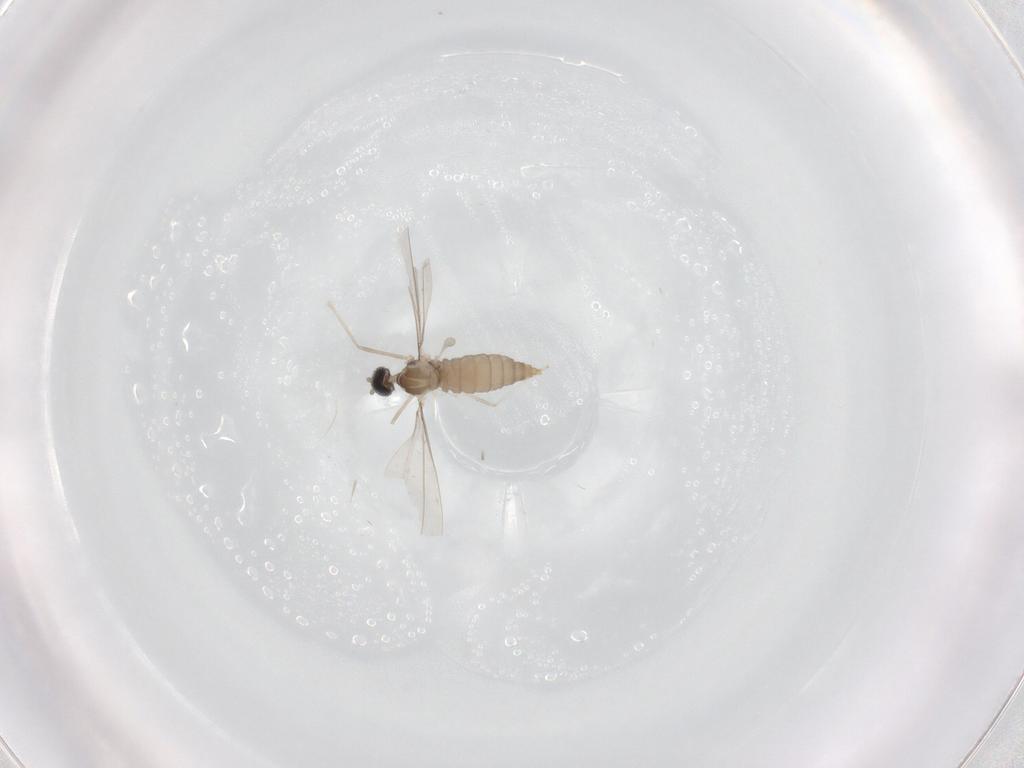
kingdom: Animalia
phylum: Arthropoda
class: Insecta
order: Diptera
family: Cecidomyiidae
